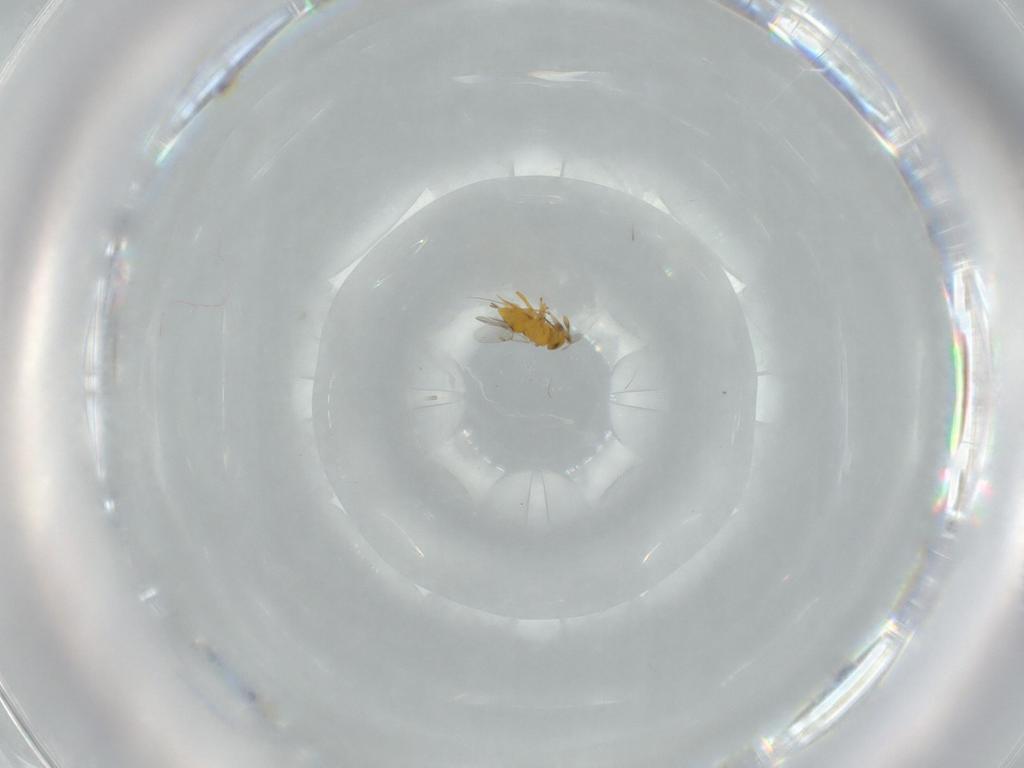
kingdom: Animalia
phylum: Arthropoda
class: Insecta
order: Hymenoptera
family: Encyrtidae
